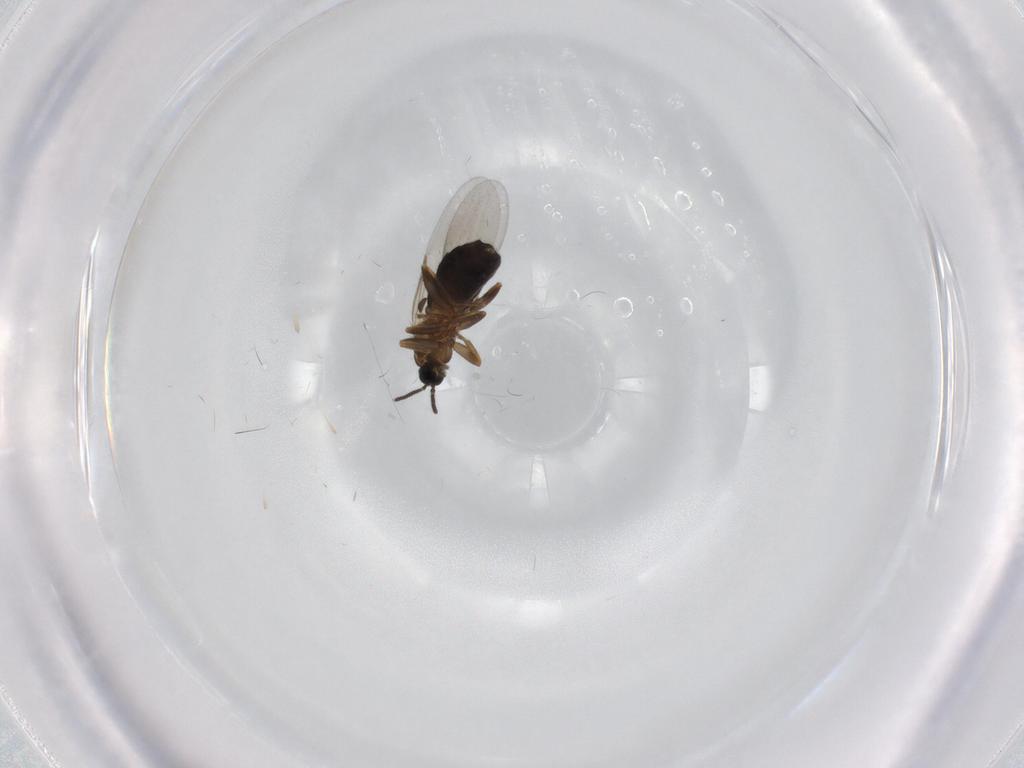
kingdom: Animalia
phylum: Arthropoda
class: Insecta
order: Diptera
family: Scatopsidae
